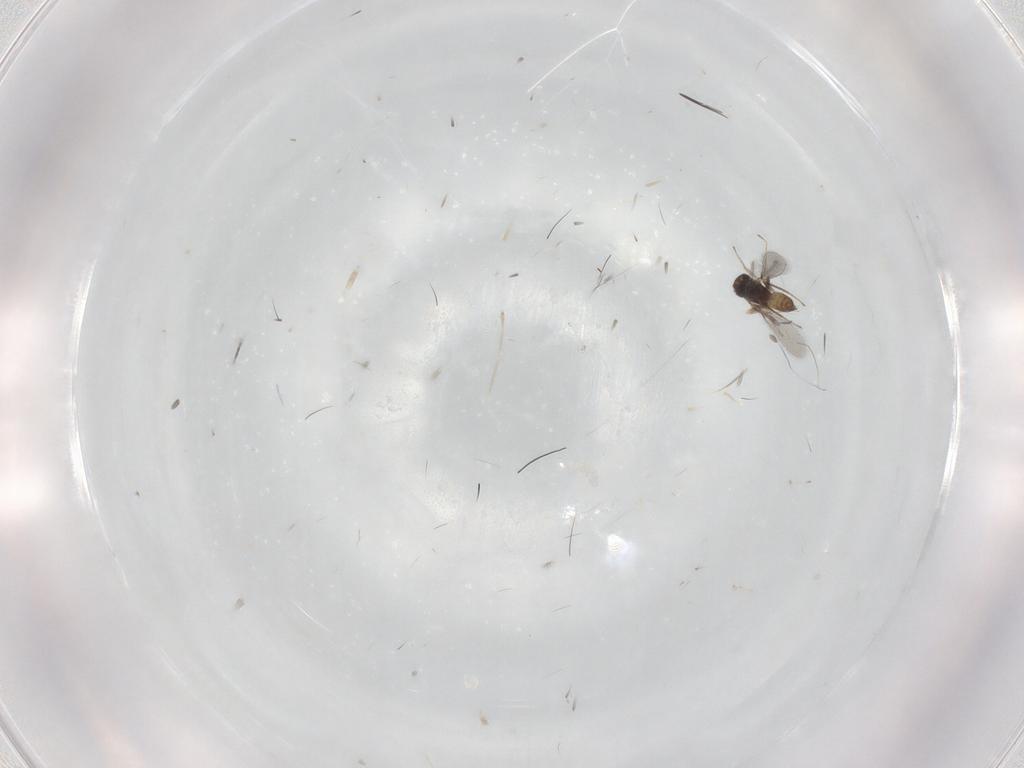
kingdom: Animalia
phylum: Arthropoda
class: Insecta
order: Hymenoptera
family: Mymaridae
